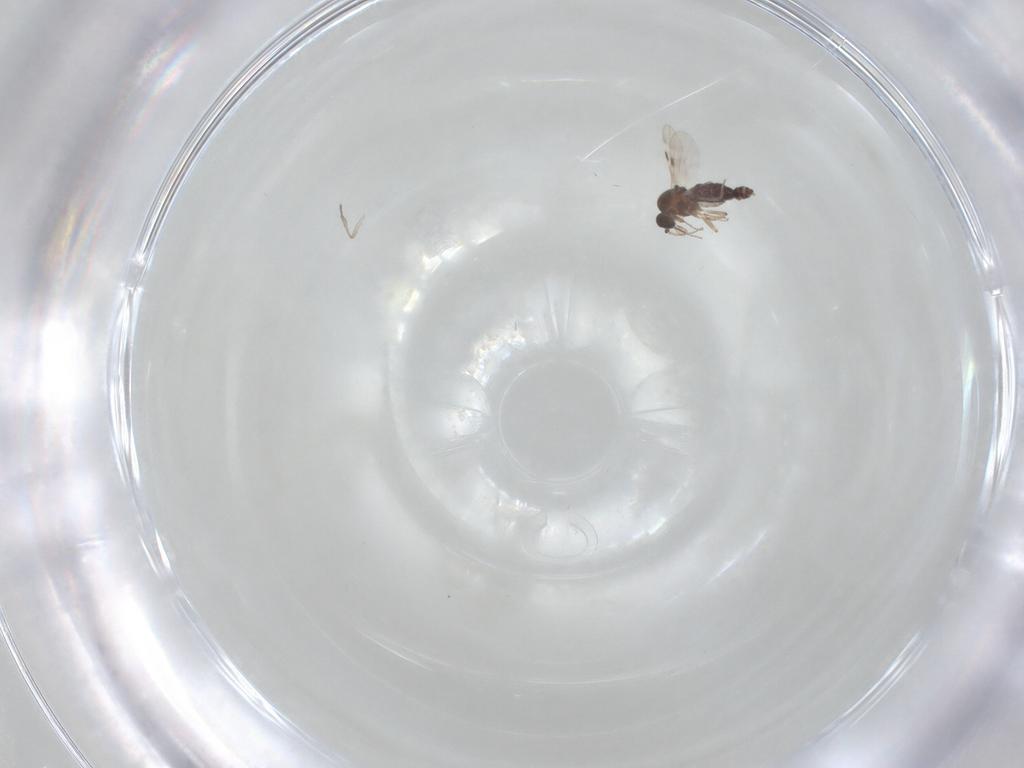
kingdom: Animalia
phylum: Arthropoda
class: Insecta
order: Diptera
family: Psychodidae
